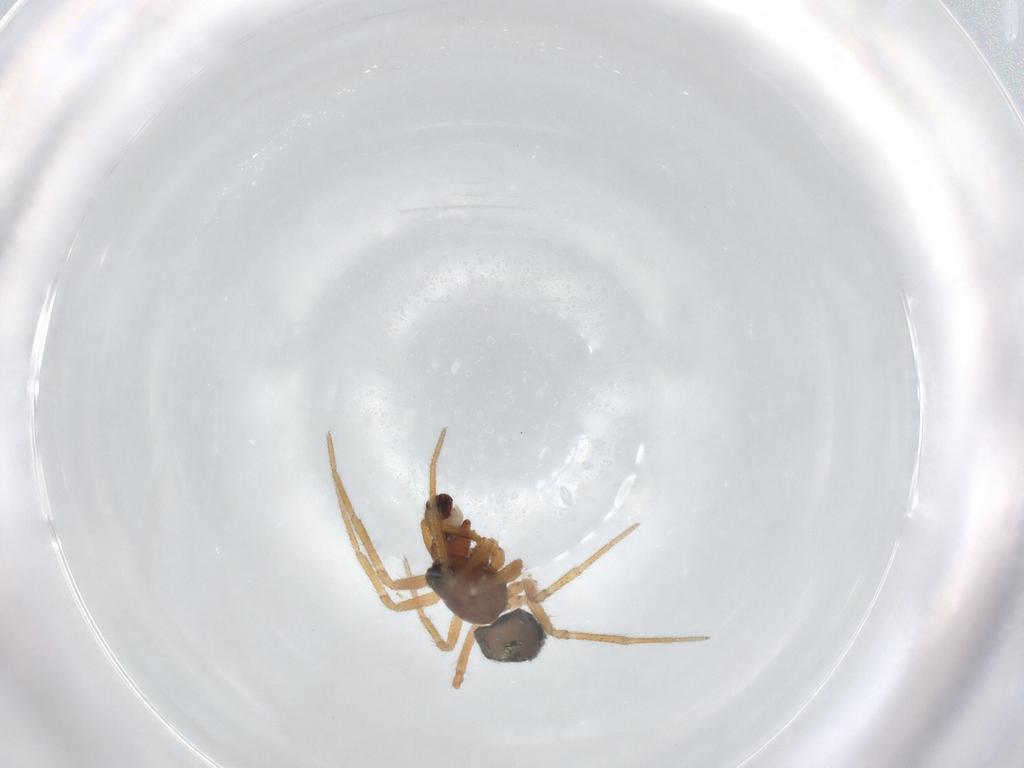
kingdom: Animalia
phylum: Arthropoda
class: Arachnida
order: Araneae
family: Linyphiidae
